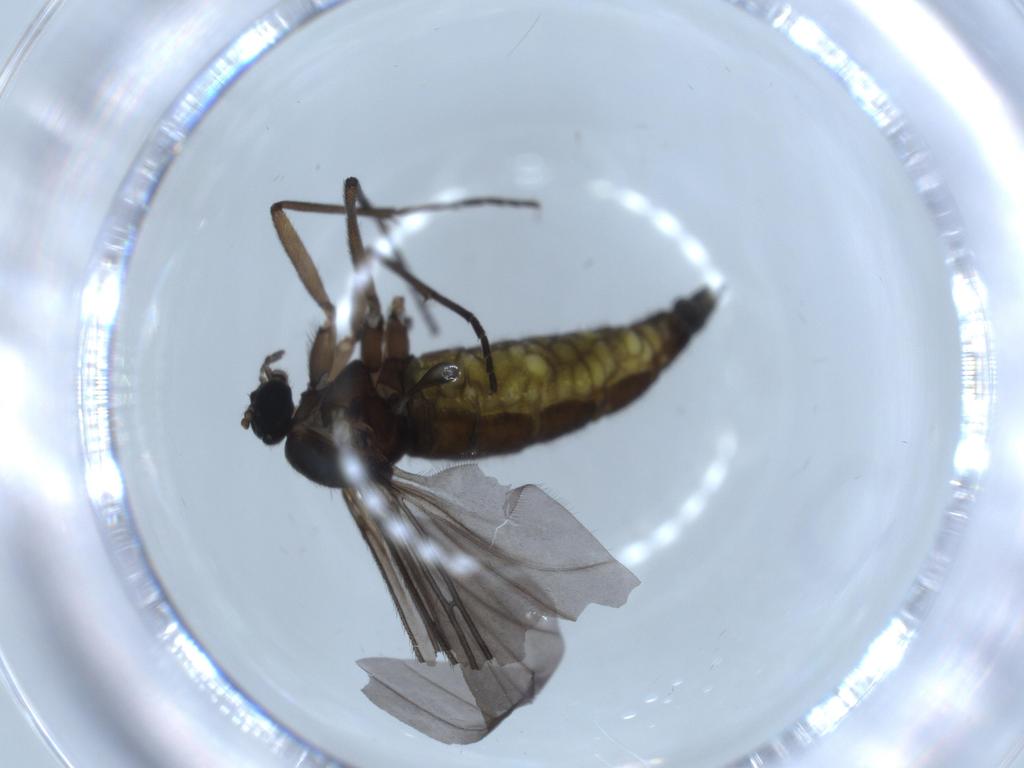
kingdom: Animalia
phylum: Arthropoda
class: Insecta
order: Diptera
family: Sciaridae
